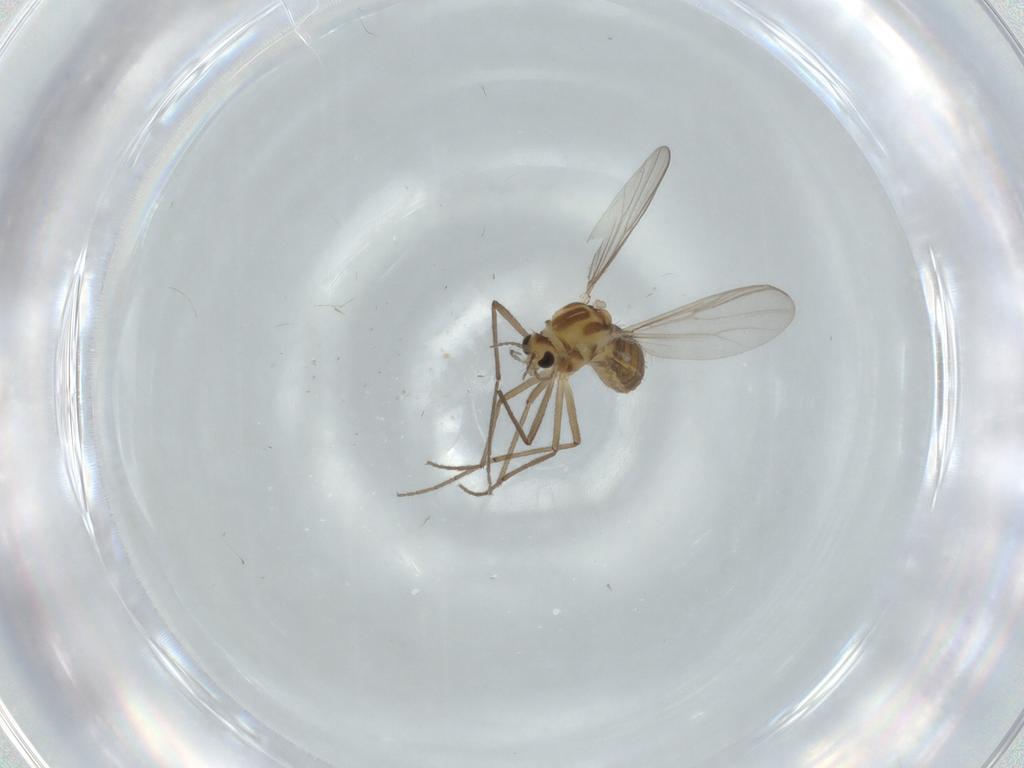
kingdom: Animalia
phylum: Arthropoda
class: Insecta
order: Diptera
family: Chironomidae
